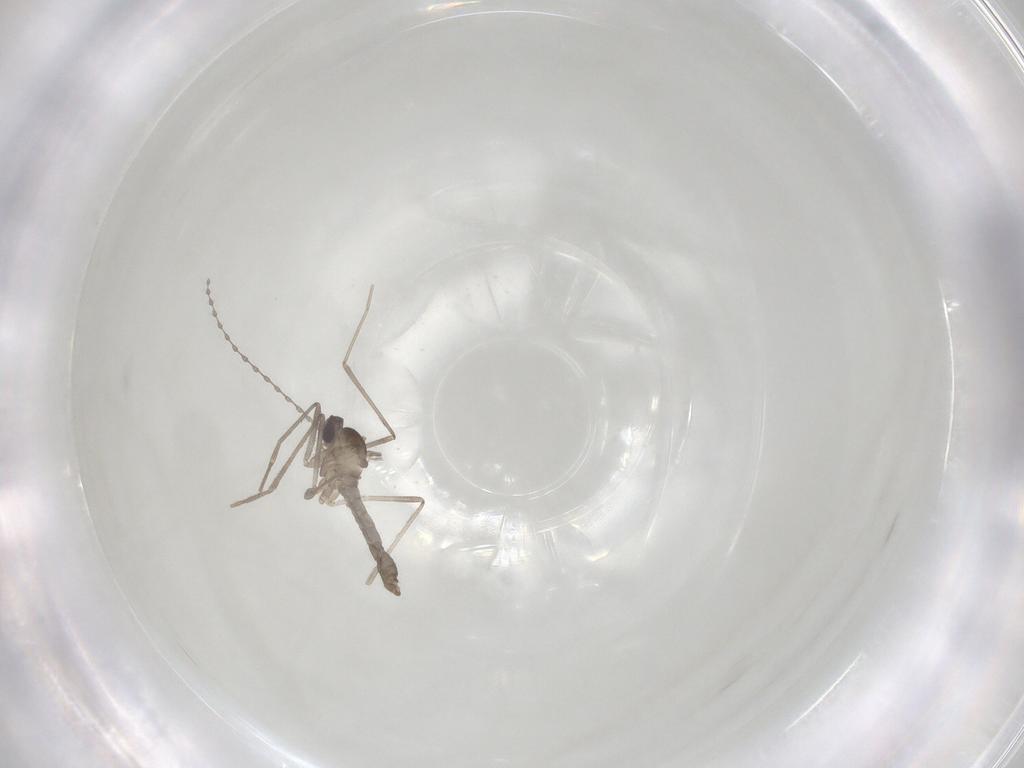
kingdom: Animalia
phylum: Arthropoda
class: Insecta
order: Diptera
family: Cecidomyiidae
